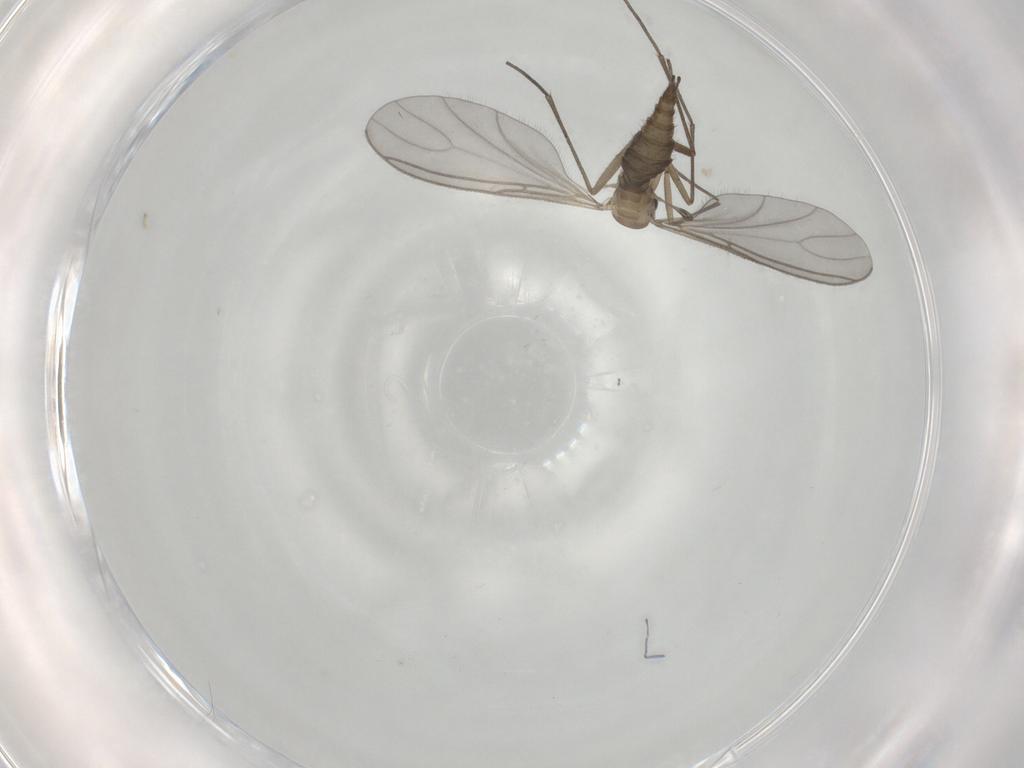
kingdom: Animalia
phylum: Arthropoda
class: Insecta
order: Diptera
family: Sciaridae
